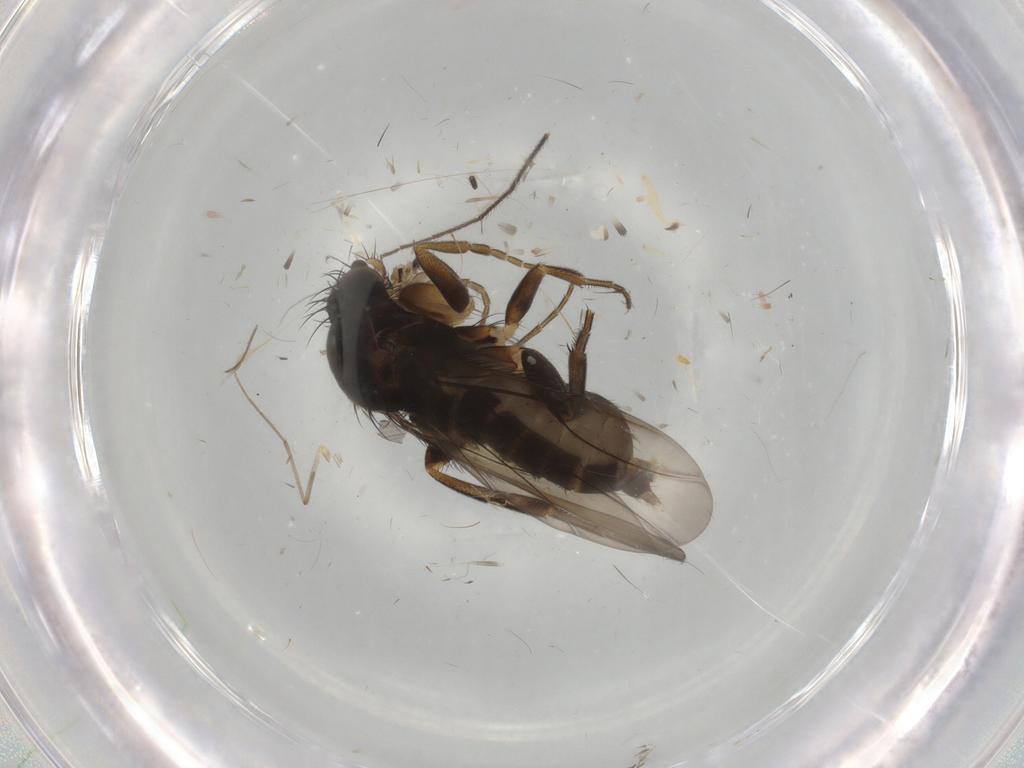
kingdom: Animalia
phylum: Arthropoda
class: Insecta
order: Diptera
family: Phoridae
